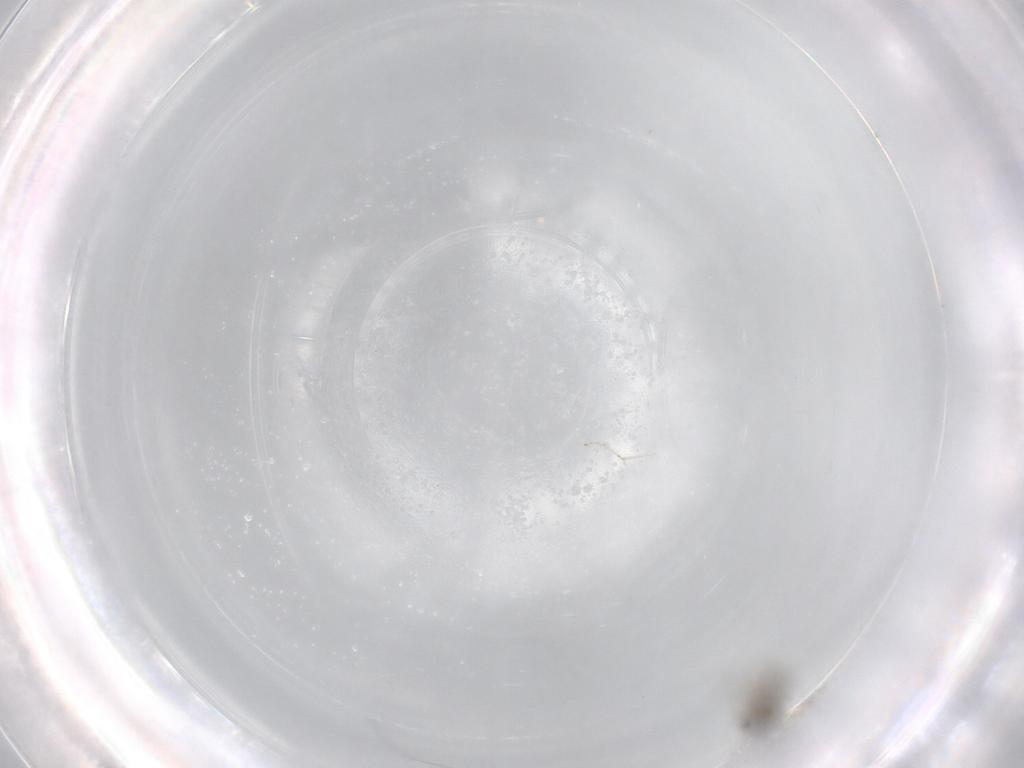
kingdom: Animalia
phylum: Arthropoda
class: Insecta
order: Diptera
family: Cecidomyiidae
